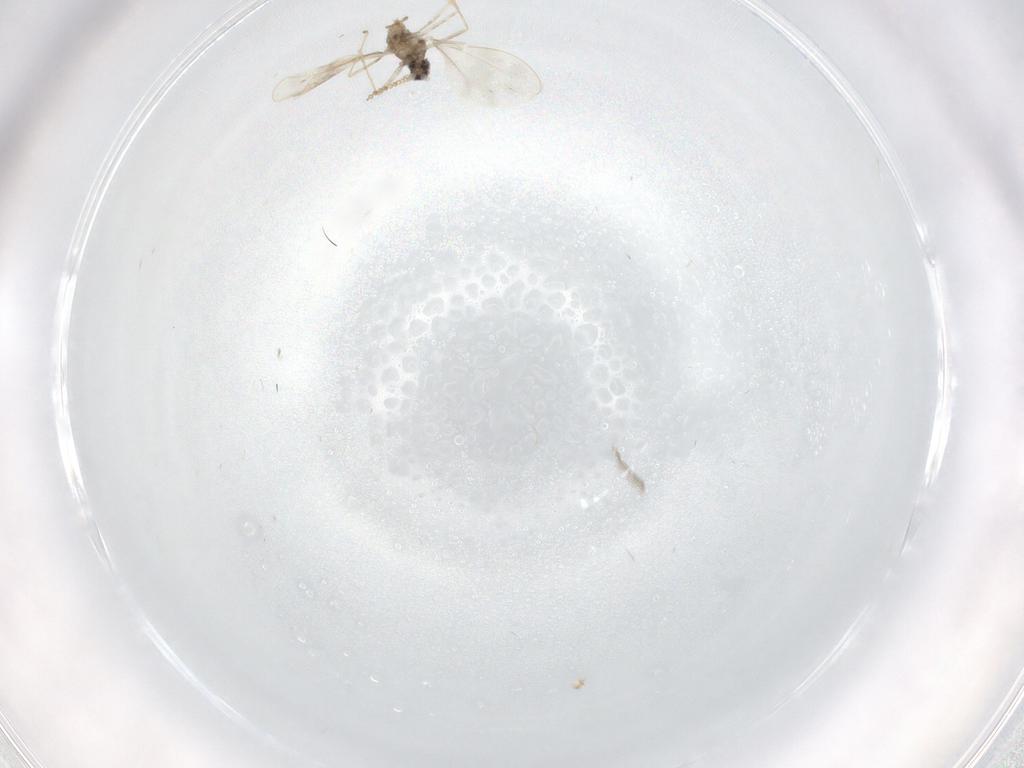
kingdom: Animalia
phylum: Arthropoda
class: Insecta
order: Diptera
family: Cecidomyiidae
